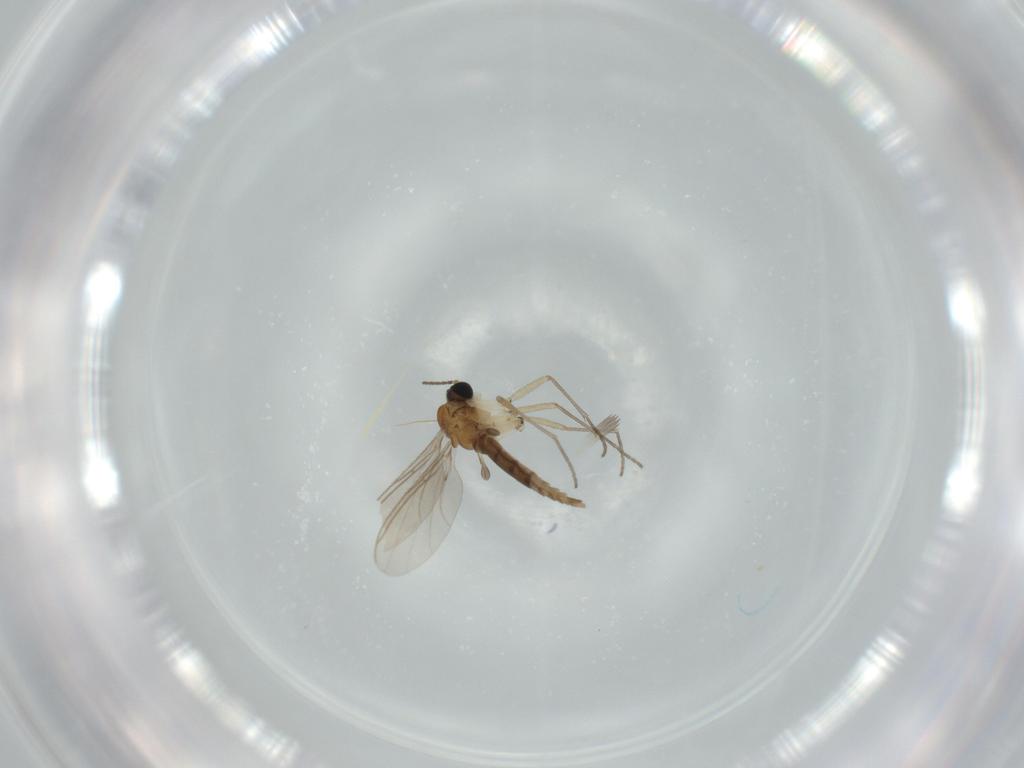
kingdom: Animalia
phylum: Arthropoda
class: Insecta
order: Diptera
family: Sciaridae
